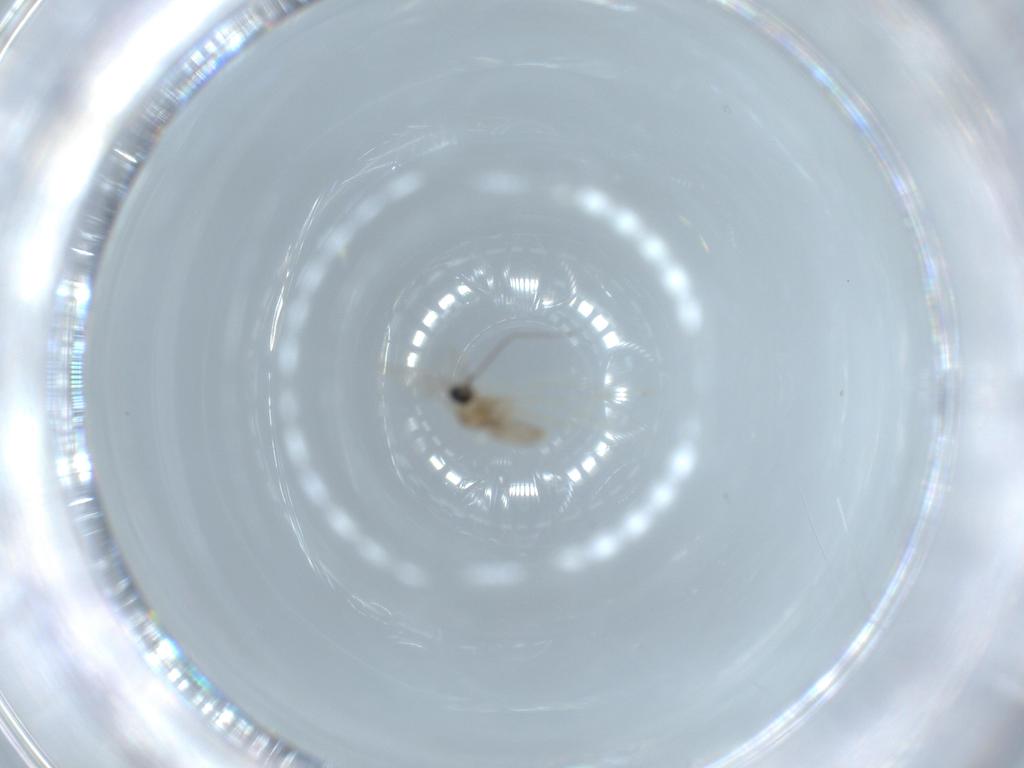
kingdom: Animalia
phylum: Arthropoda
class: Insecta
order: Diptera
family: Cecidomyiidae
